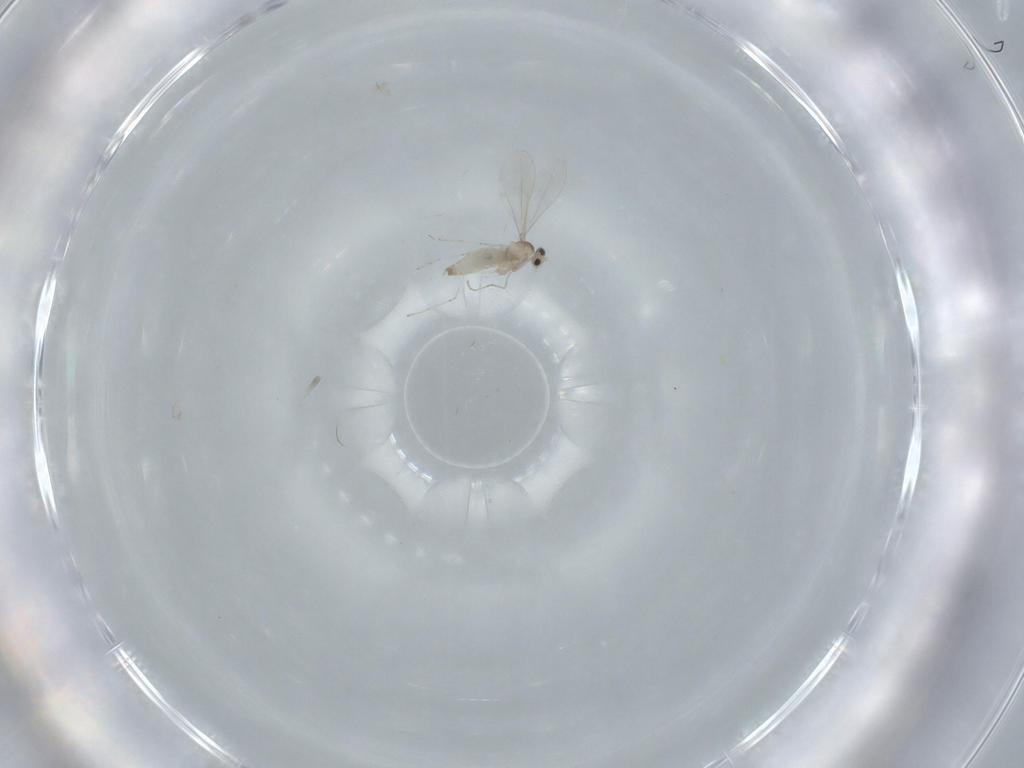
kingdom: Animalia
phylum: Arthropoda
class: Insecta
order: Diptera
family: Cecidomyiidae
